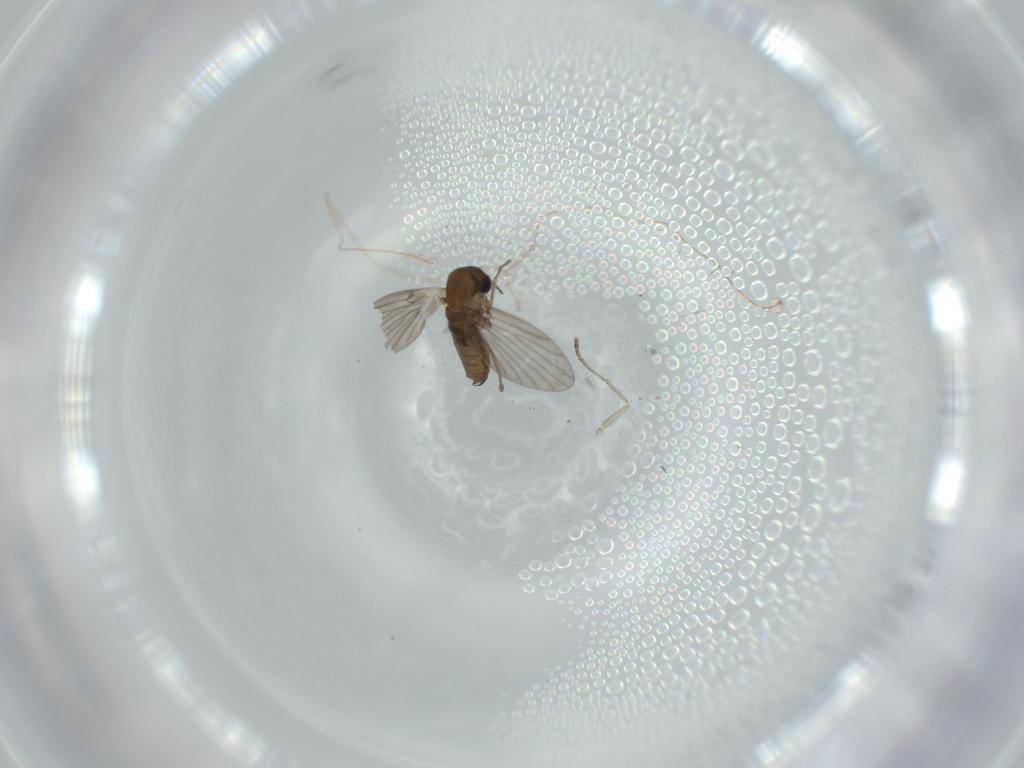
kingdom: Animalia
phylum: Arthropoda
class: Insecta
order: Diptera
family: Psychodidae
